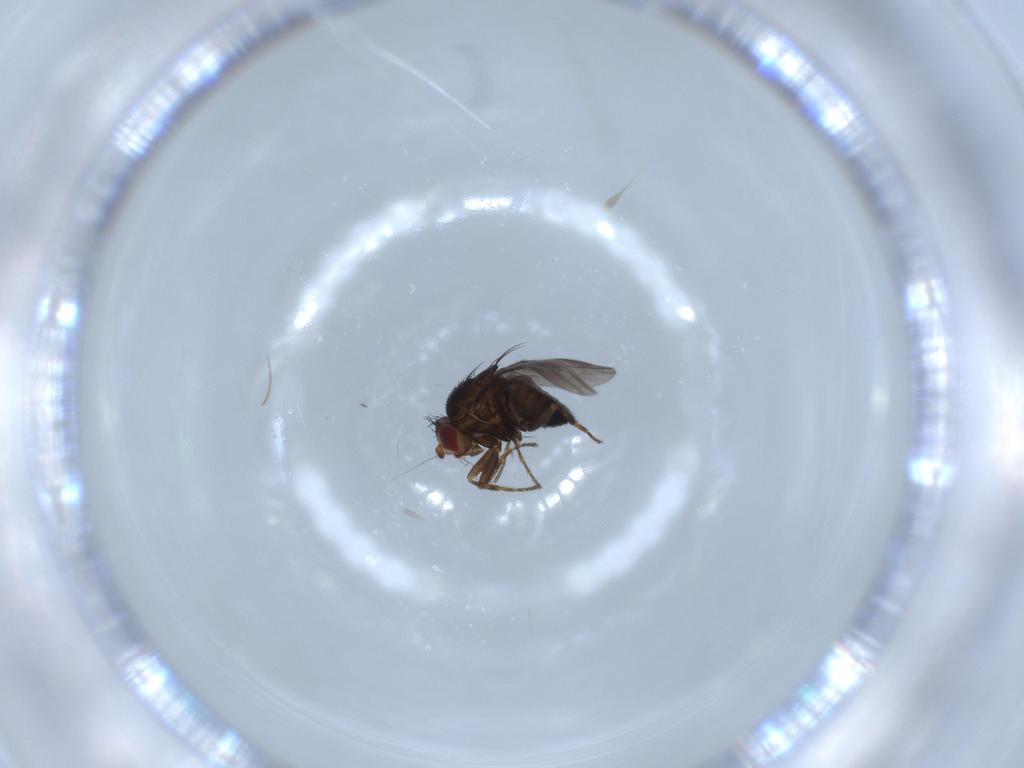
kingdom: Animalia
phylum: Arthropoda
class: Insecta
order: Diptera
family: Sphaeroceridae
